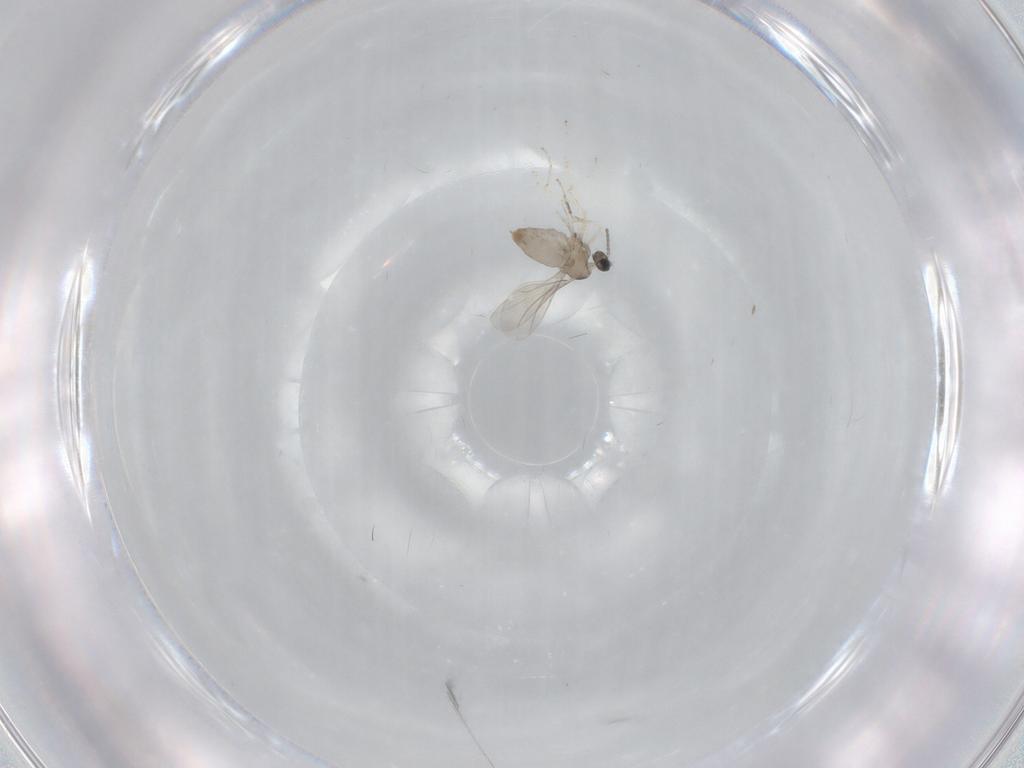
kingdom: Animalia
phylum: Arthropoda
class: Insecta
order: Diptera
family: Cecidomyiidae
